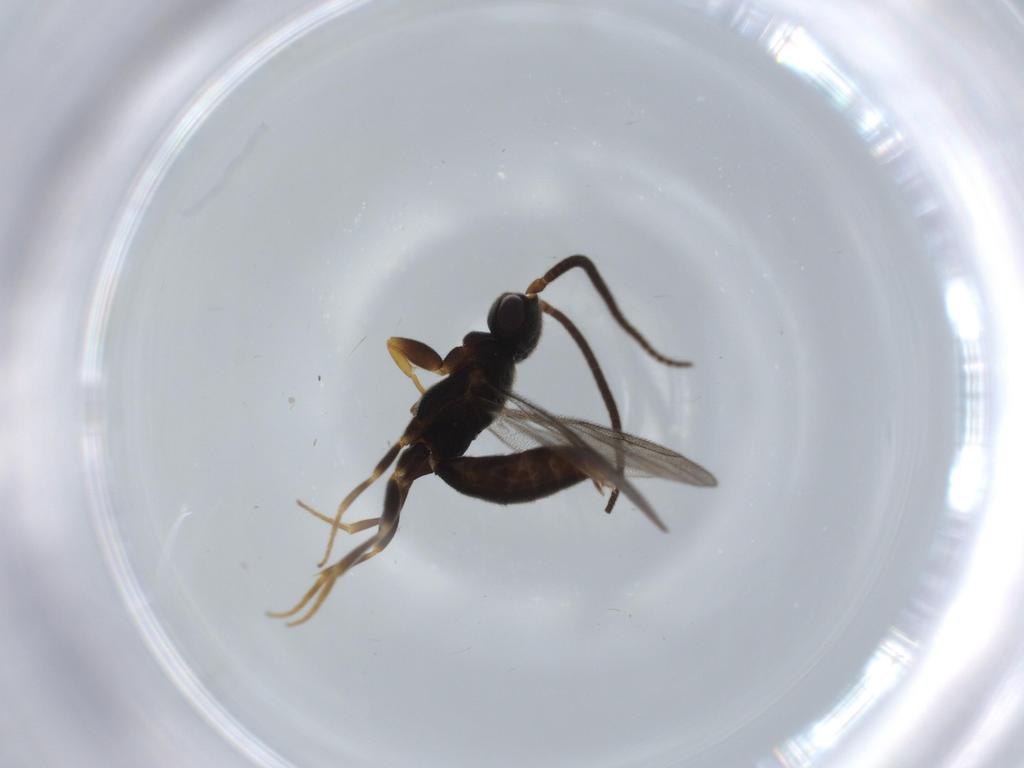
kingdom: Animalia
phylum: Arthropoda
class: Insecta
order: Hymenoptera
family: Sclerogibbidae
